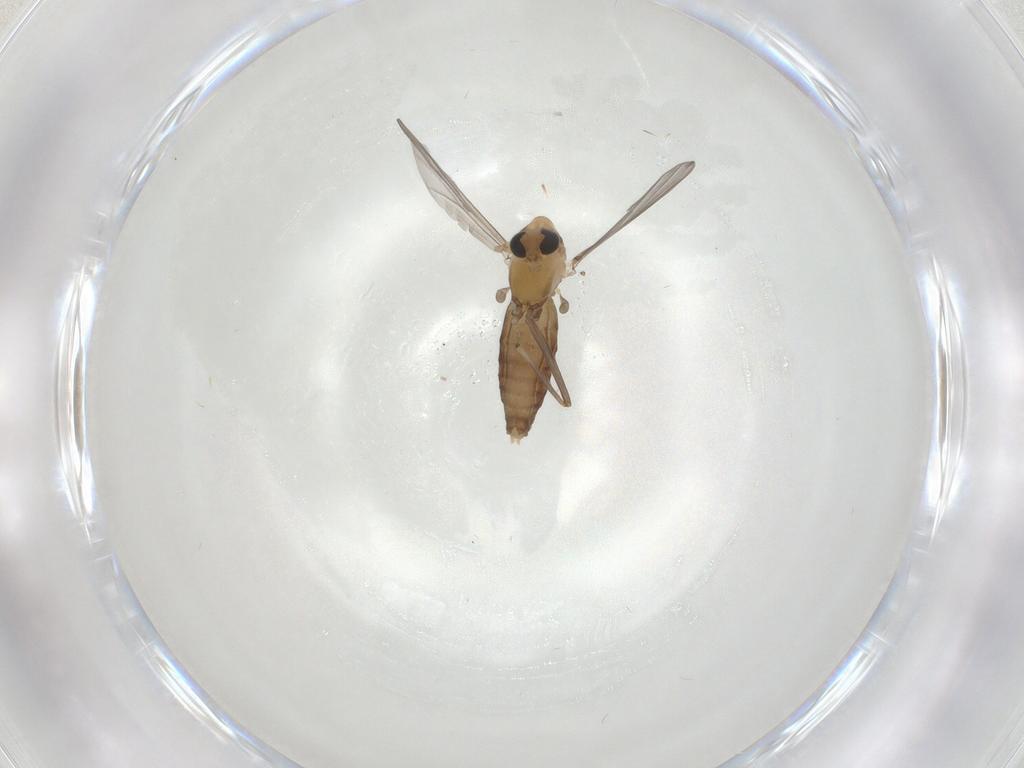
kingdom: Animalia
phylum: Arthropoda
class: Insecta
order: Diptera
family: Chironomidae
